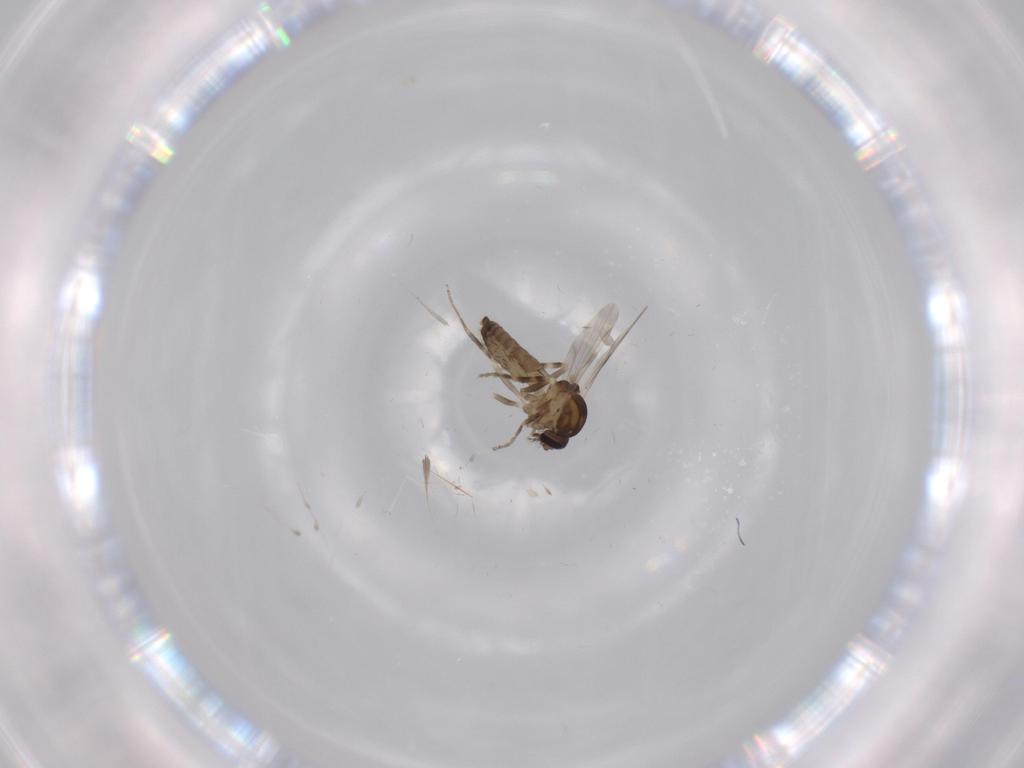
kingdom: Animalia
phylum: Arthropoda
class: Insecta
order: Diptera
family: Ceratopogonidae
